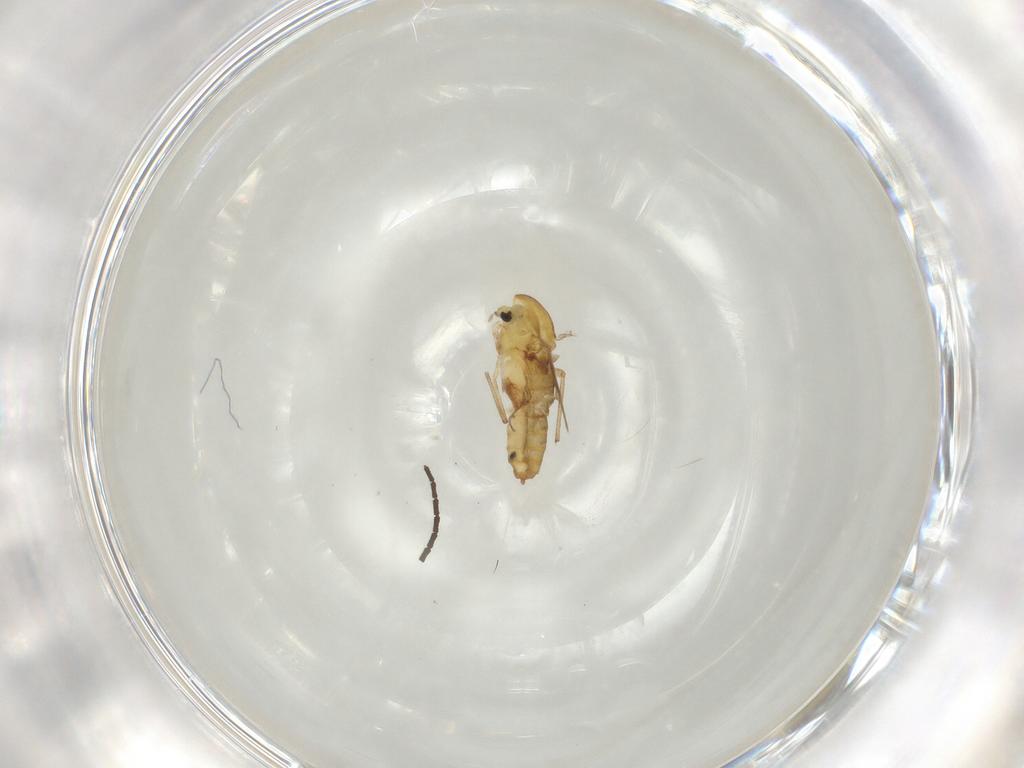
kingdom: Animalia
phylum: Arthropoda
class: Insecta
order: Diptera
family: Chironomidae
